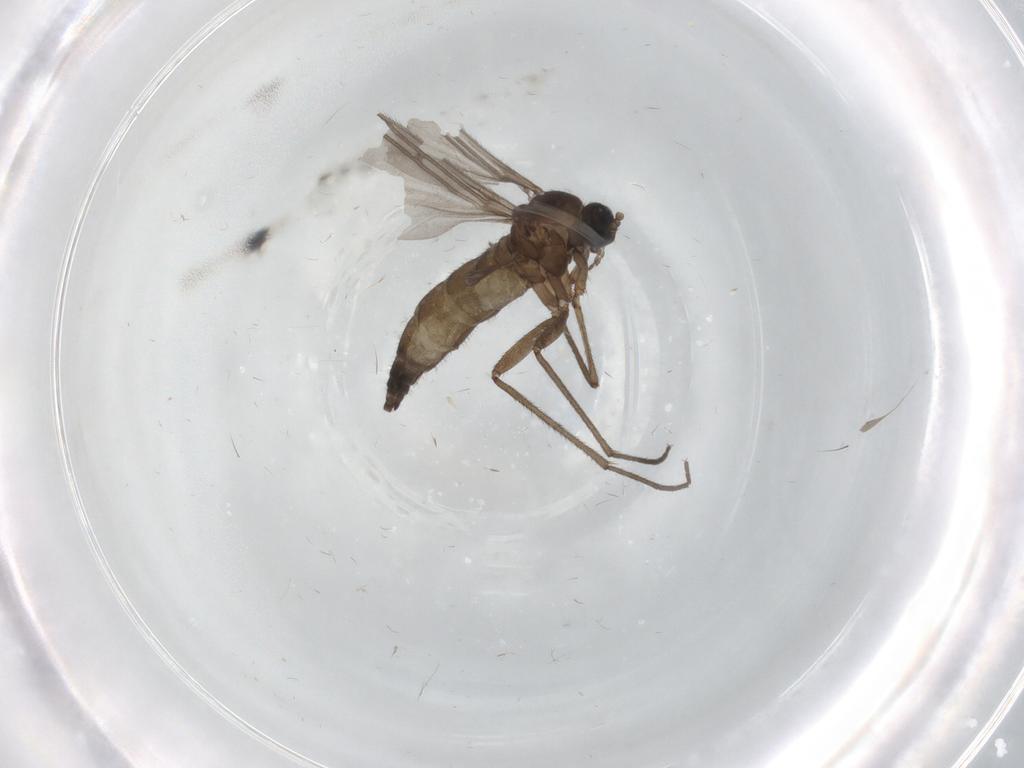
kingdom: Animalia
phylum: Arthropoda
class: Insecta
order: Diptera
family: Sciaridae
